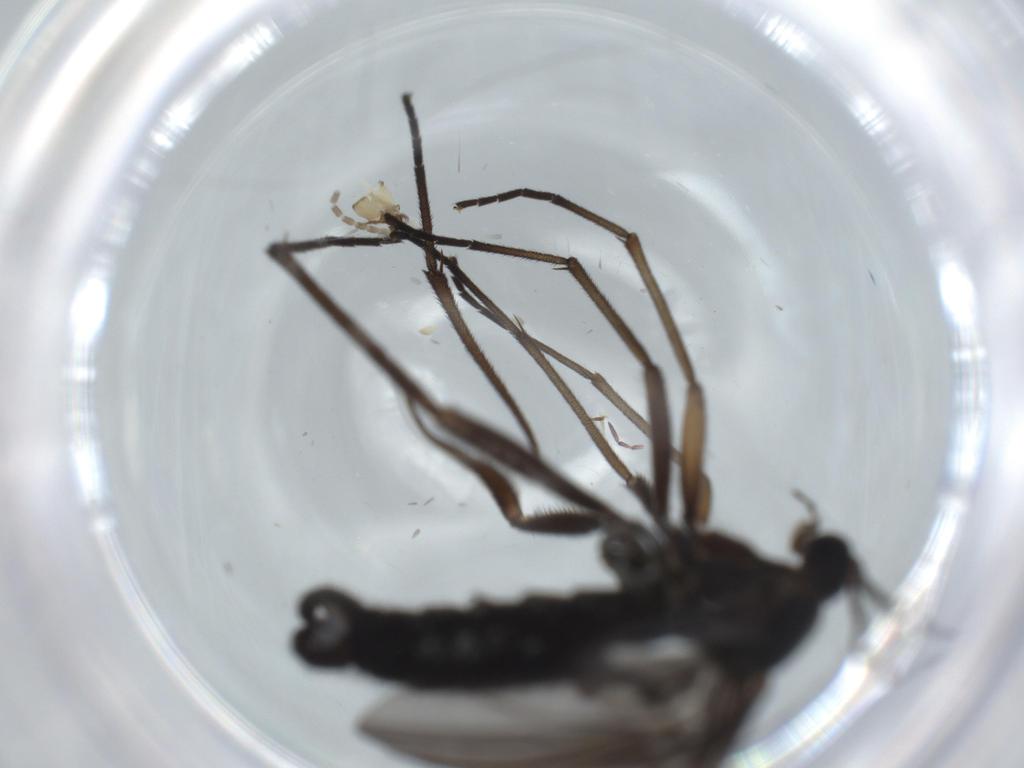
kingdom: Animalia
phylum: Arthropoda
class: Insecta
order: Diptera
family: Sciaridae
